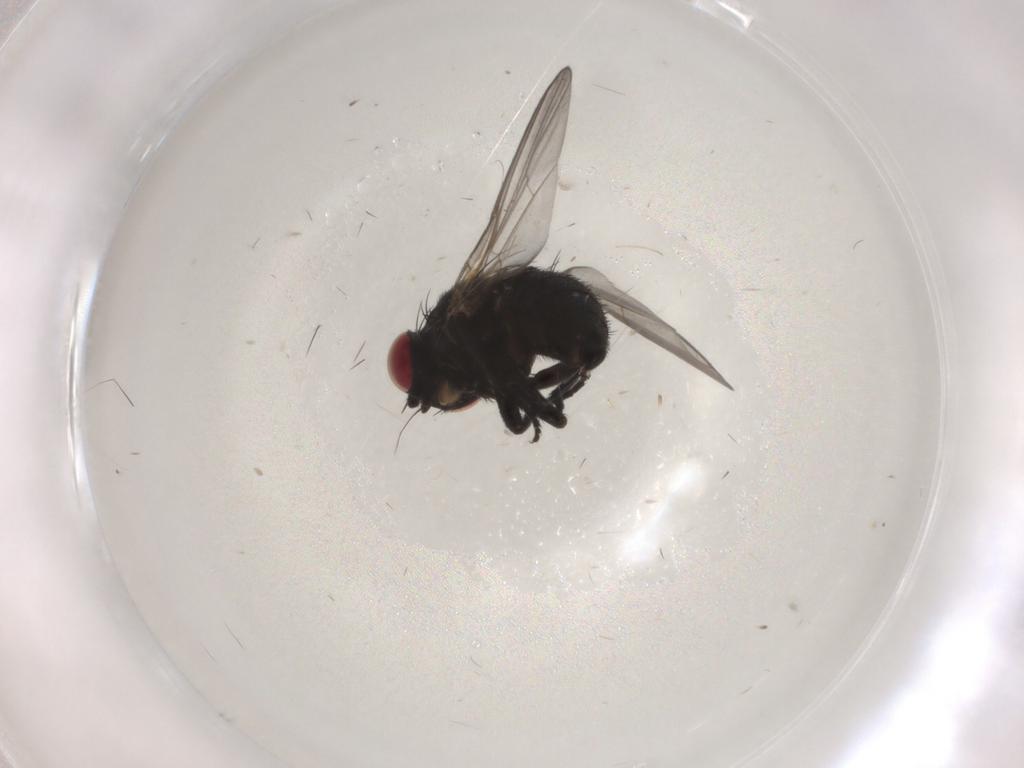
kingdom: Animalia
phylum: Arthropoda
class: Insecta
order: Diptera
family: Agromyzidae
